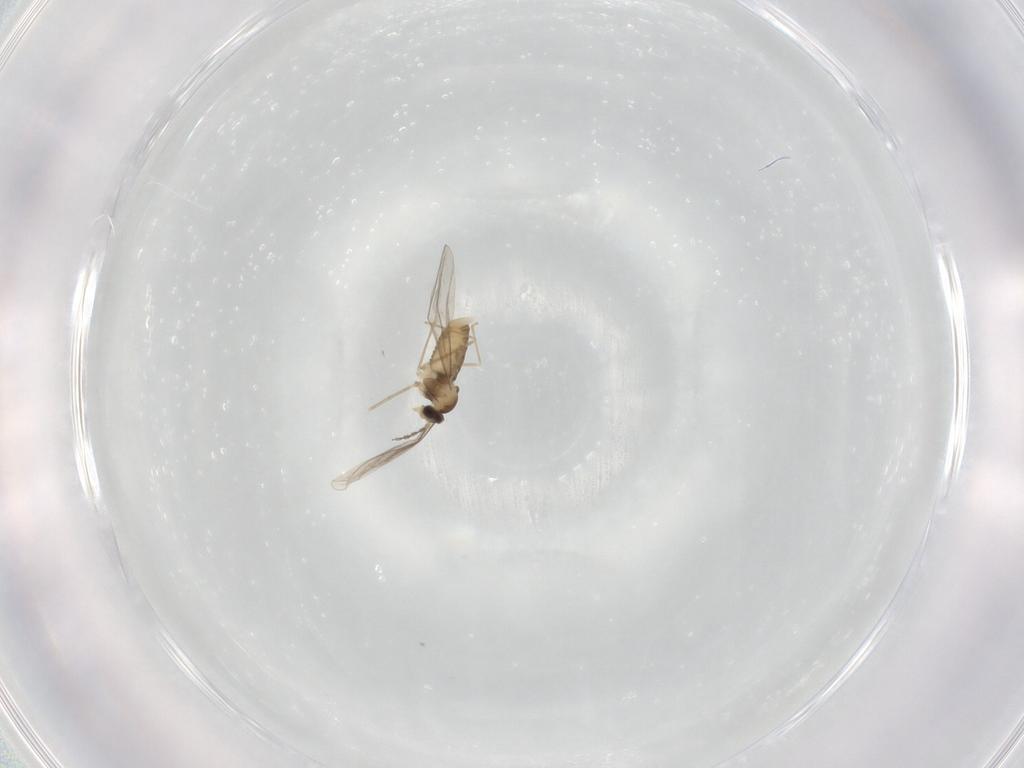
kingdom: Animalia
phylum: Arthropoda
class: Insecta
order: Diptera
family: Cecidomyiidae
